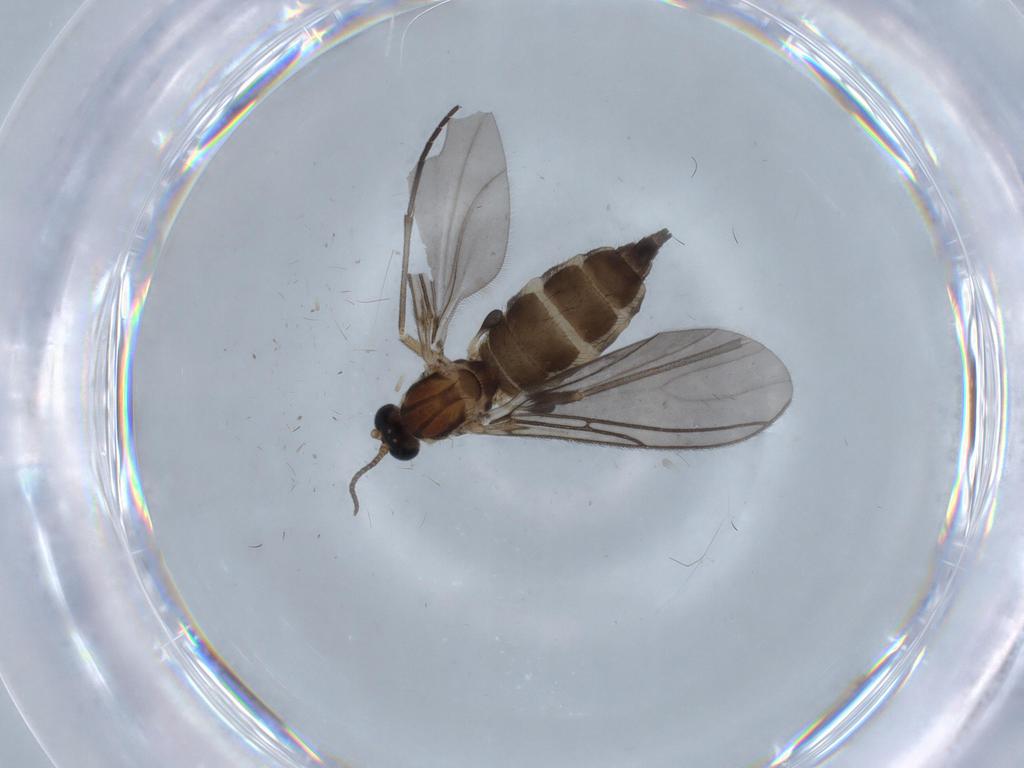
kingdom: Animalia
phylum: Arthropoda
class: Insecta
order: Diptera
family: Sciaridae
